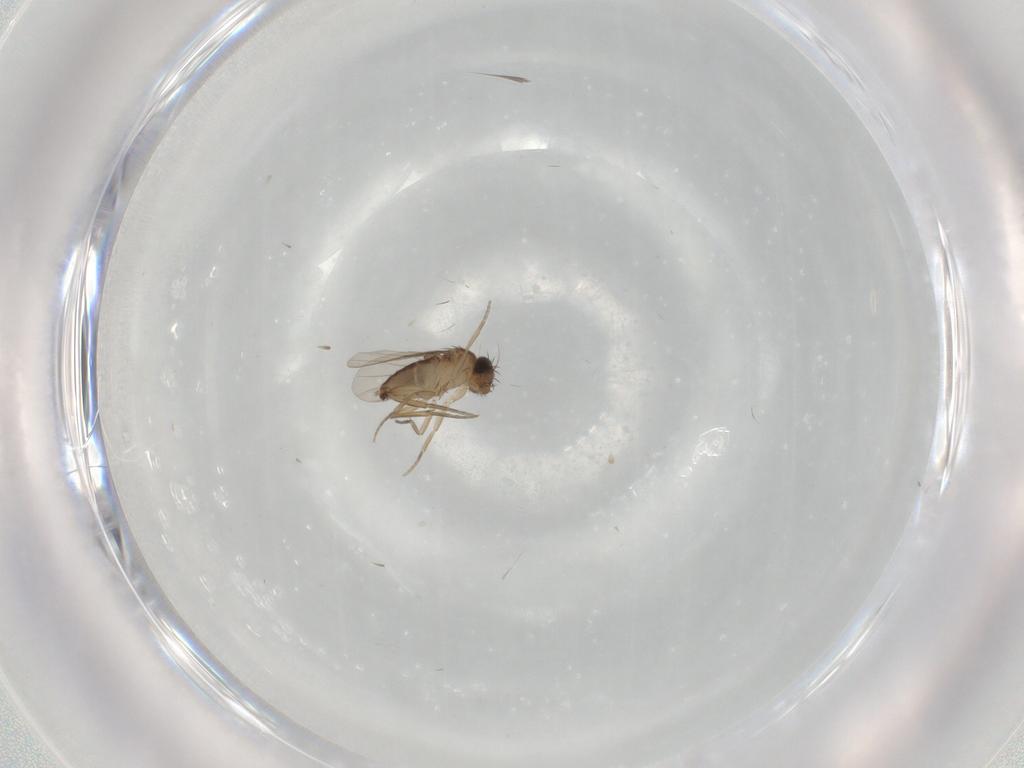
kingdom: Animalia
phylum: Arthropoda
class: Insecta
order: Diptera
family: Phoridae
